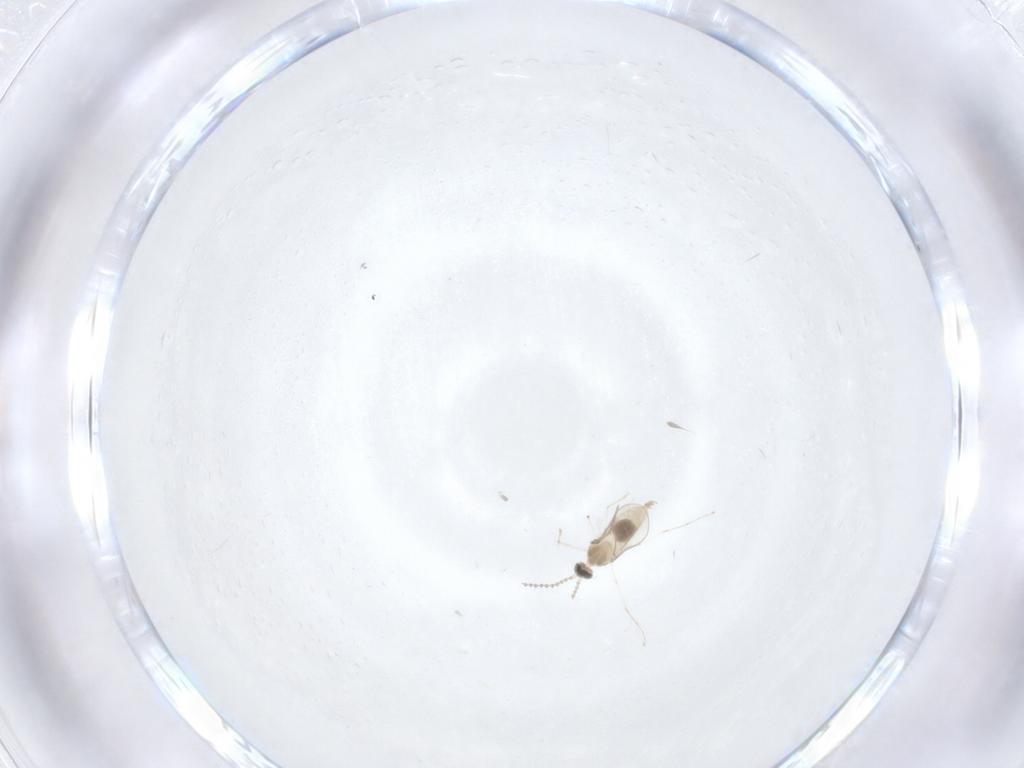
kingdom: Animalia
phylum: Arthropoda
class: Insecta
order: Diptera
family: Cecidomyiidae
